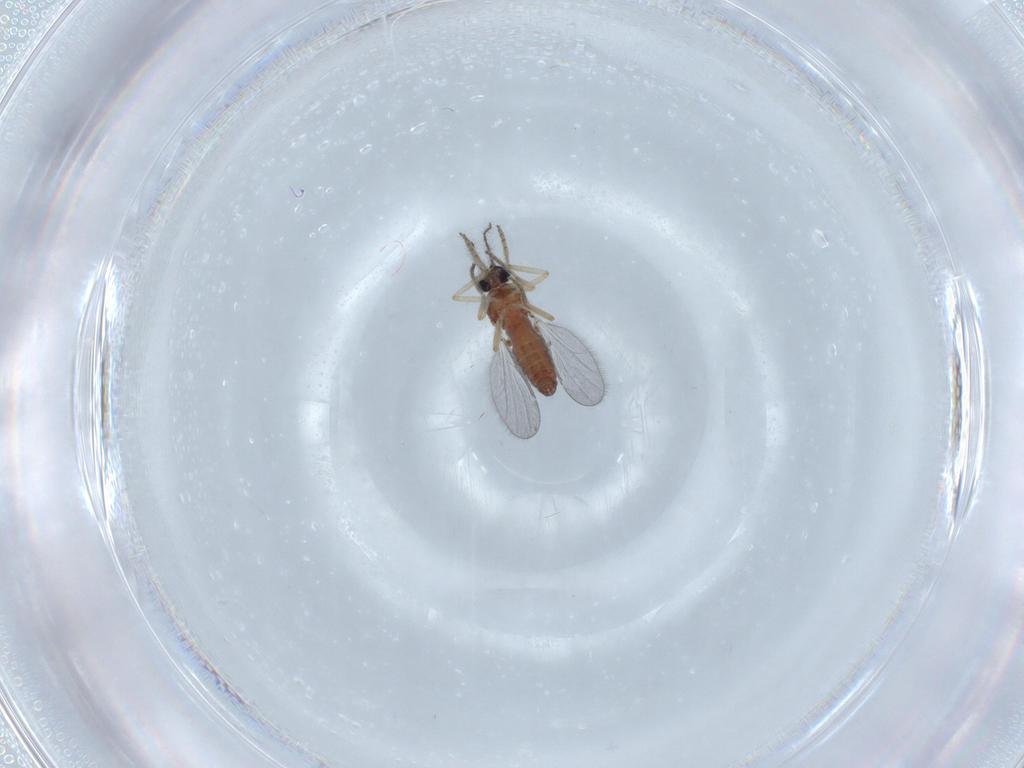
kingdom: Animalia
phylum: Arthropoda
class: Insecta
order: Diptera
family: Ceratopogonidae
